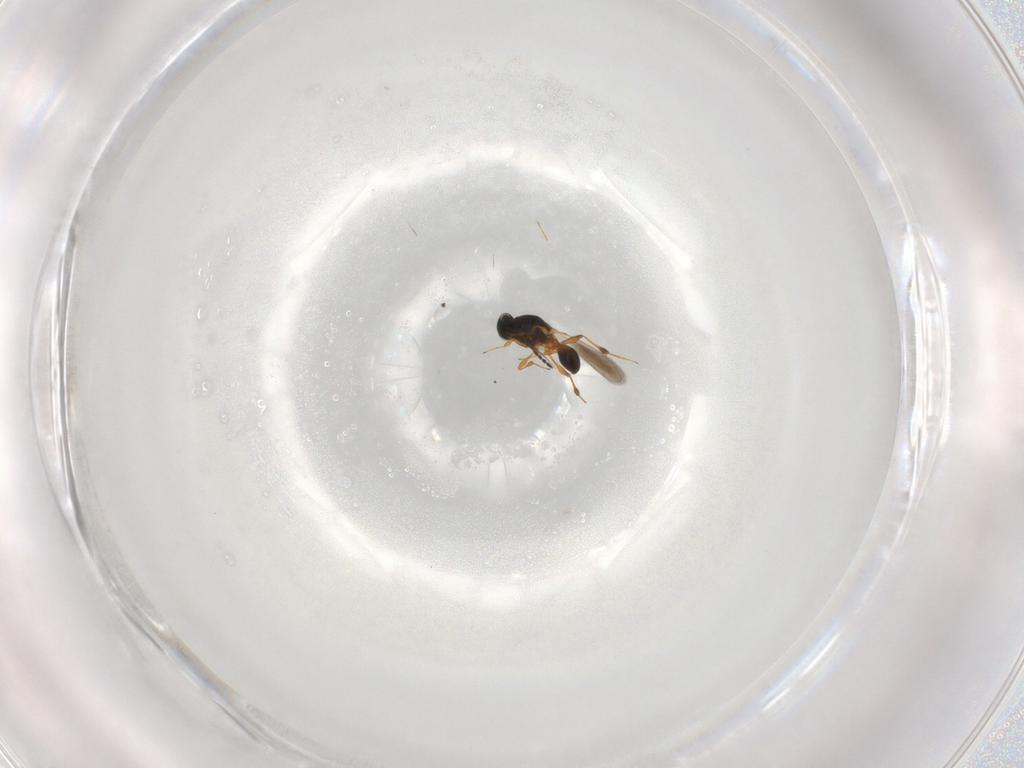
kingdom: Animalia
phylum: Arthropoda
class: Insecta
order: Hymenoptera
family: Platygastridae
